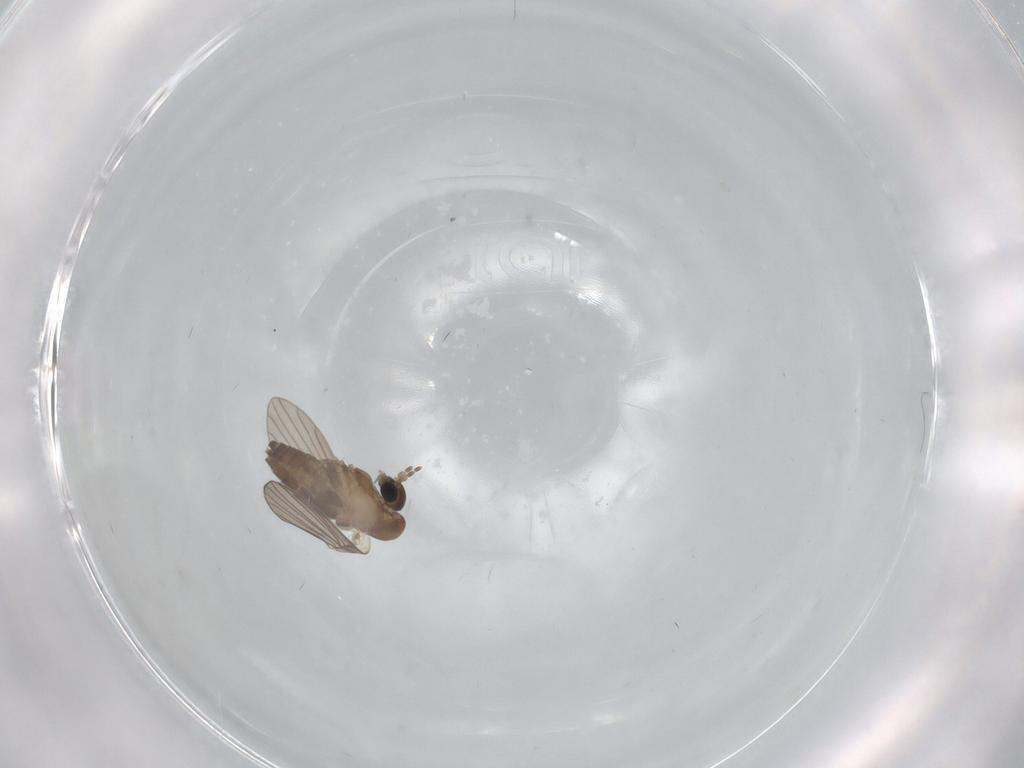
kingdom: Animalia
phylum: Arthropoda
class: Insecta
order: Diptera
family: Psychodidae
